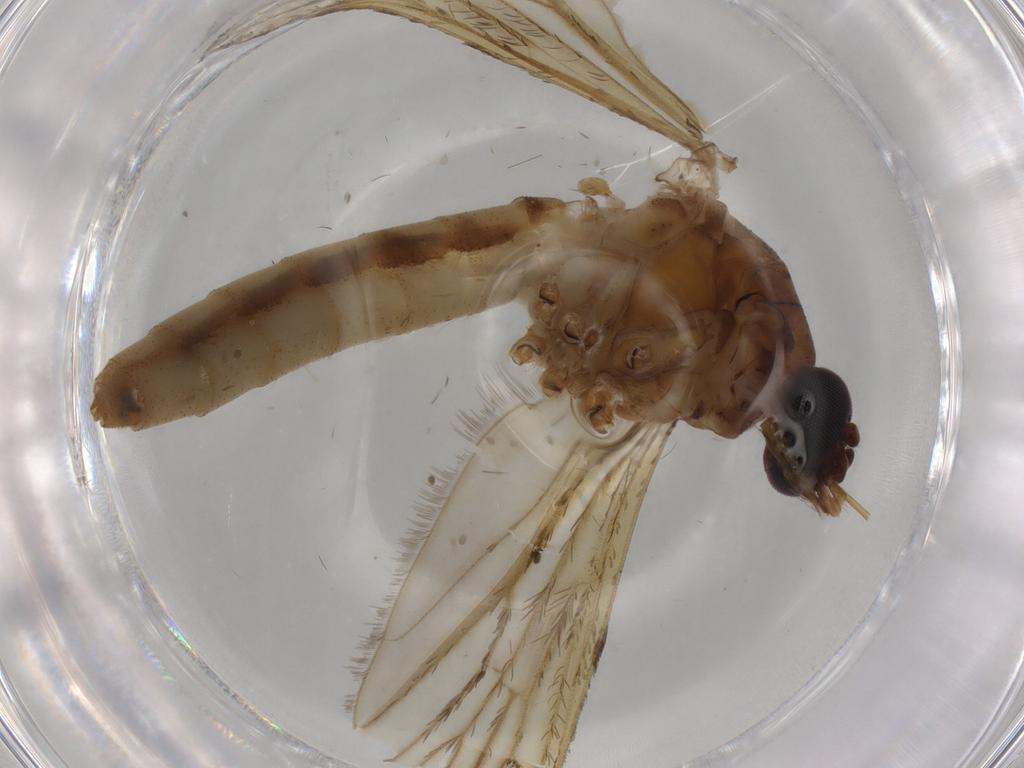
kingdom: Animalia
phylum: Arthropoda
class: Insecta
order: Diptera
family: Culicidae
